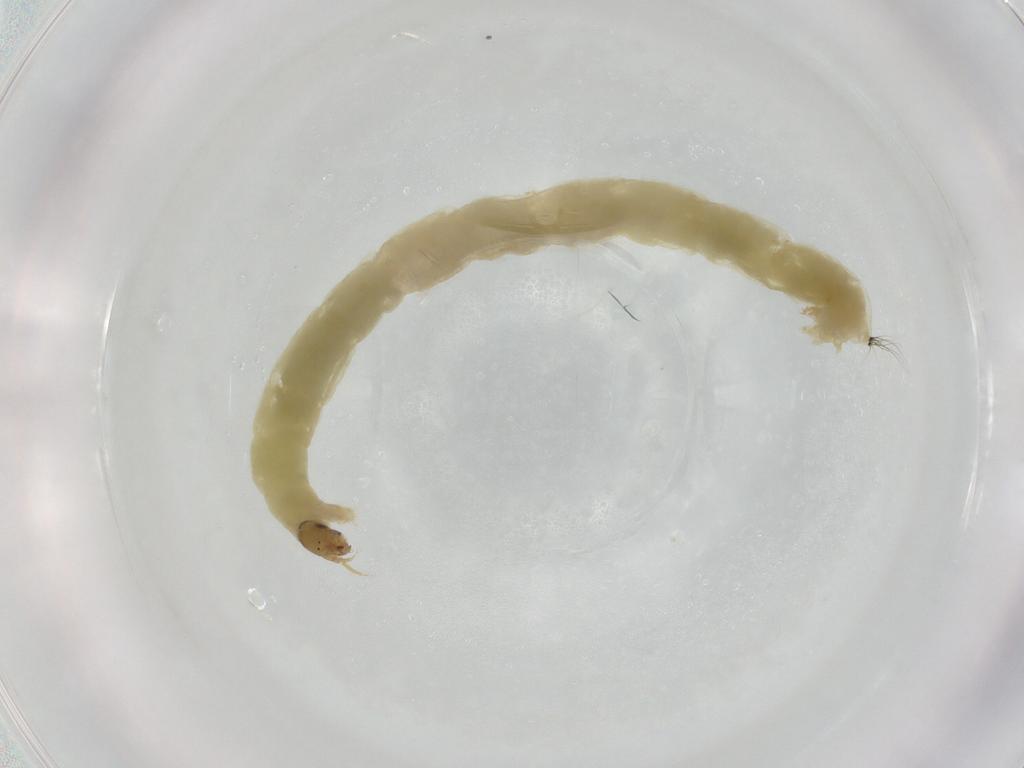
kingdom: Animalia
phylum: Arthropoda
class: Insecta
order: Diptera
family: Chironomidae
